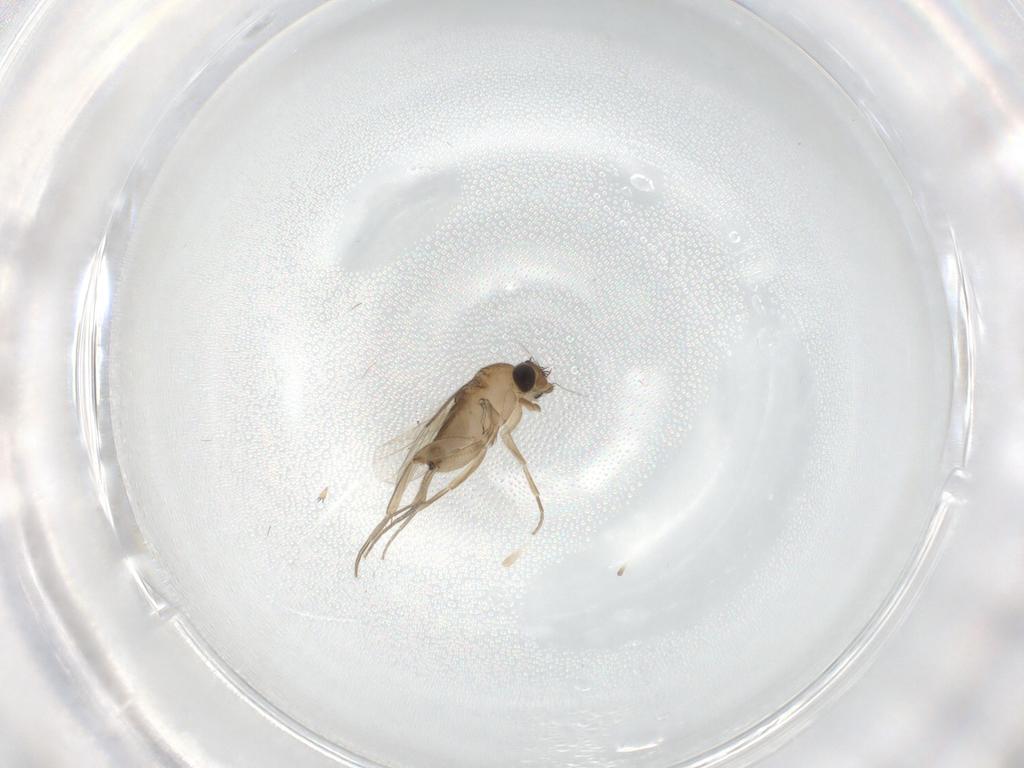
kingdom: Animalia
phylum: Arthropoda
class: Insecta
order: Diptera
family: Phoridae
